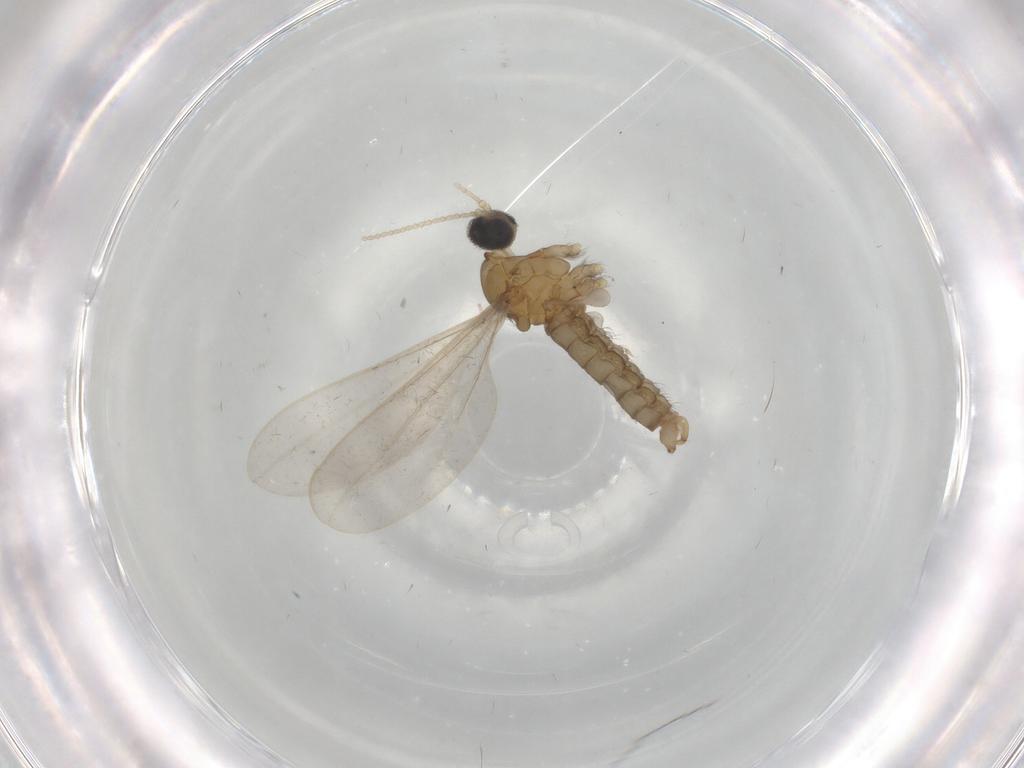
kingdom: Animalia
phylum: Arthropoda
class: Insecta
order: Diptera
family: Cecidomyiidae
